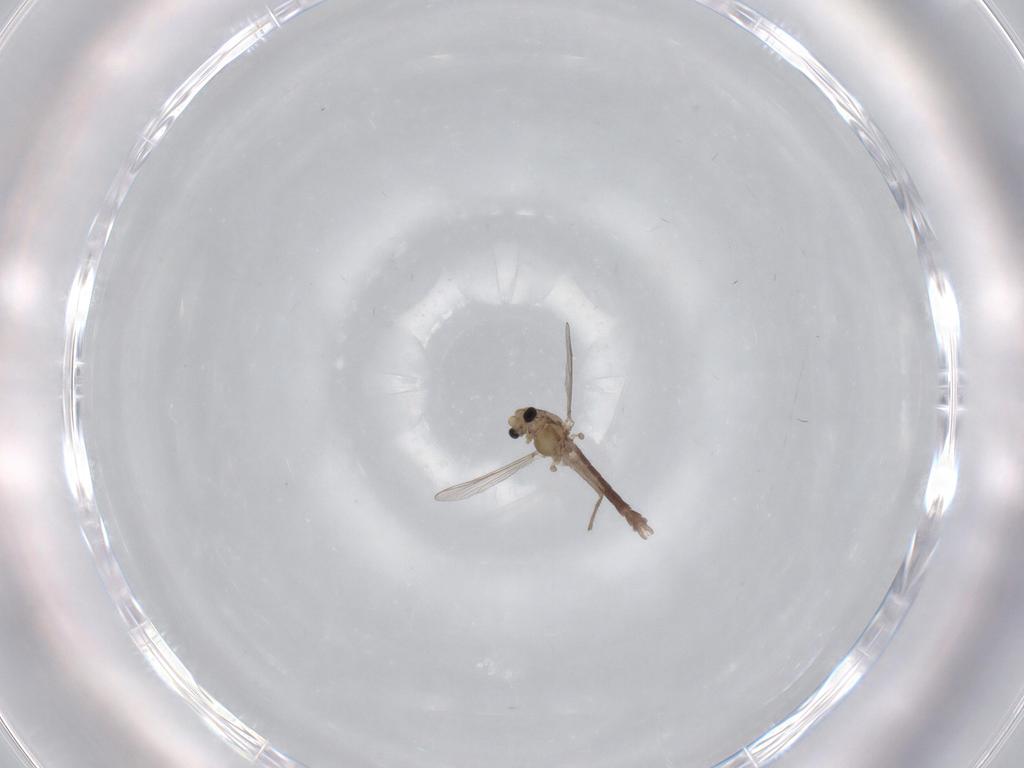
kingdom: Animalia
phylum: Arthropoda
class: Insecta
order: Diptera
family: Chironomidae
